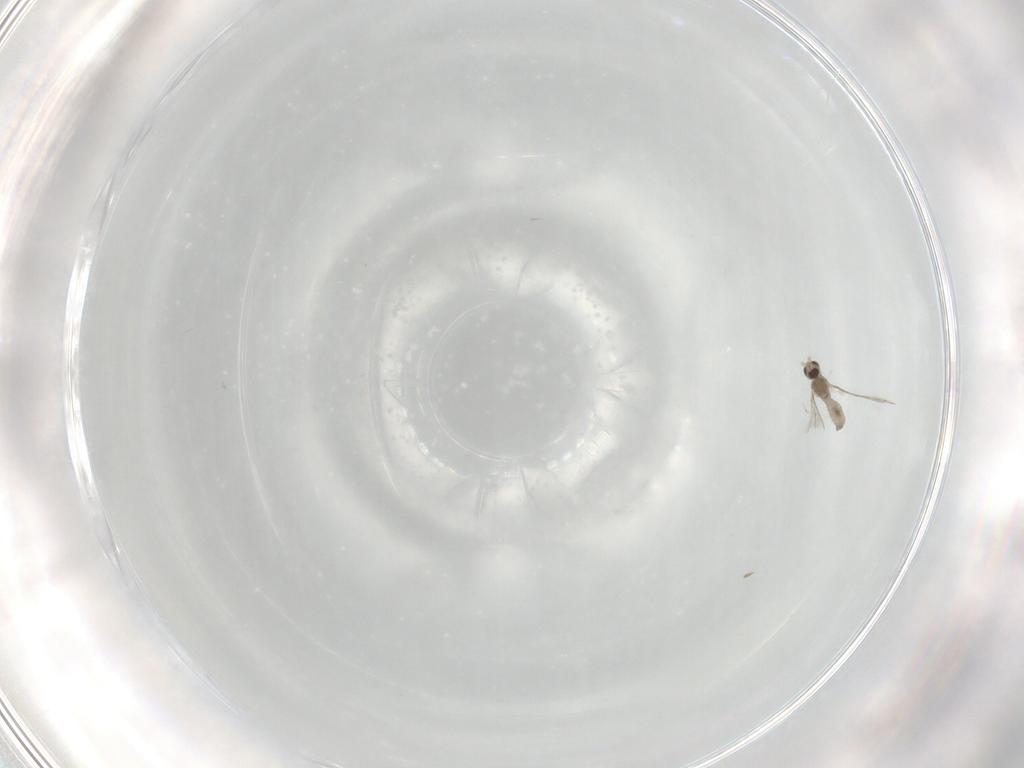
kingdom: Animalia
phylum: Arthropoda
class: Insecta
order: Diptera
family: Cecidomyiidae
